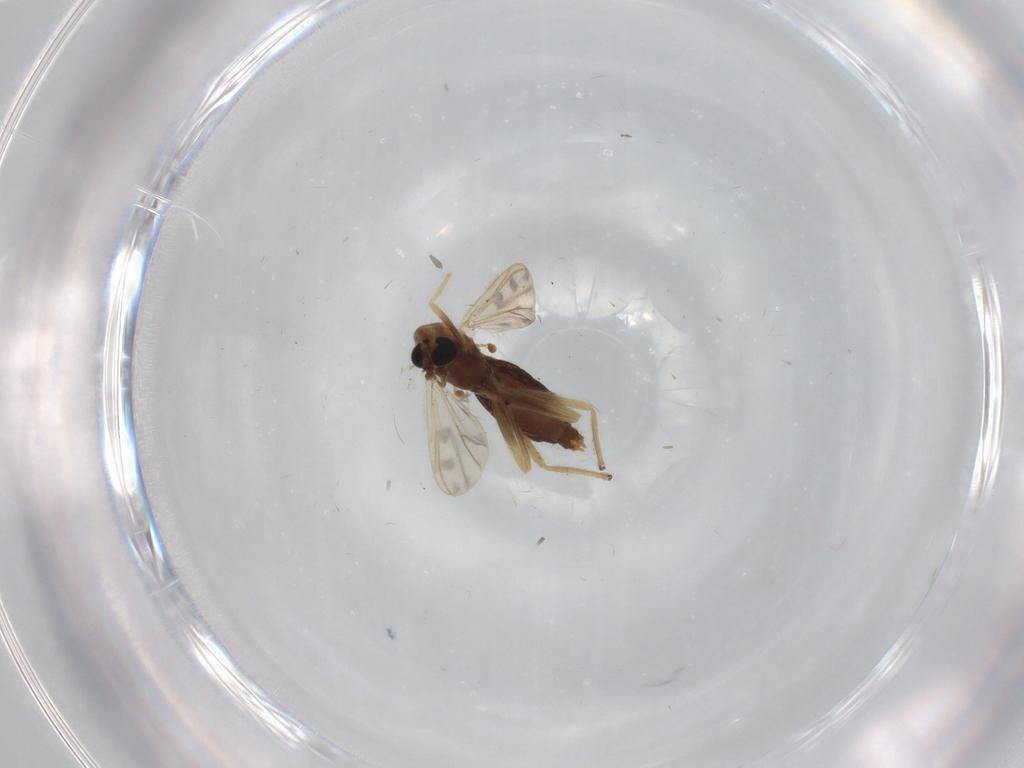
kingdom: Animalia
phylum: Arthropoda
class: Insecta
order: Diptera
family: Chironomidae
